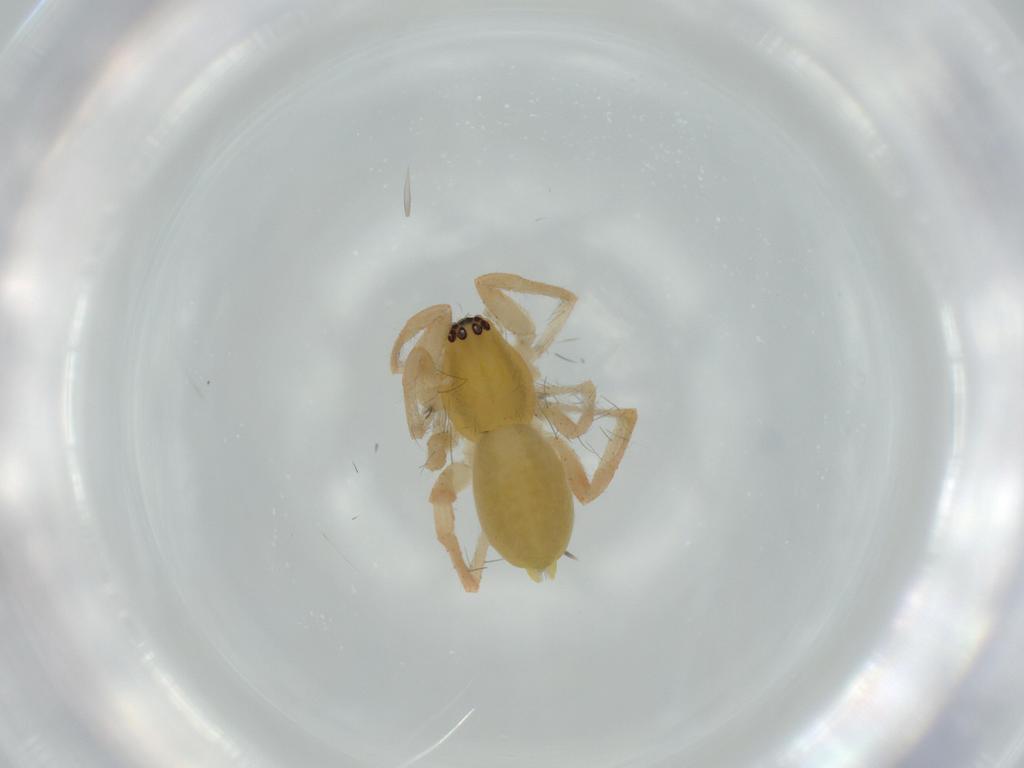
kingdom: Animalia
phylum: Arthropoda
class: Arachnida
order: Araneae
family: Anyphaenidae
